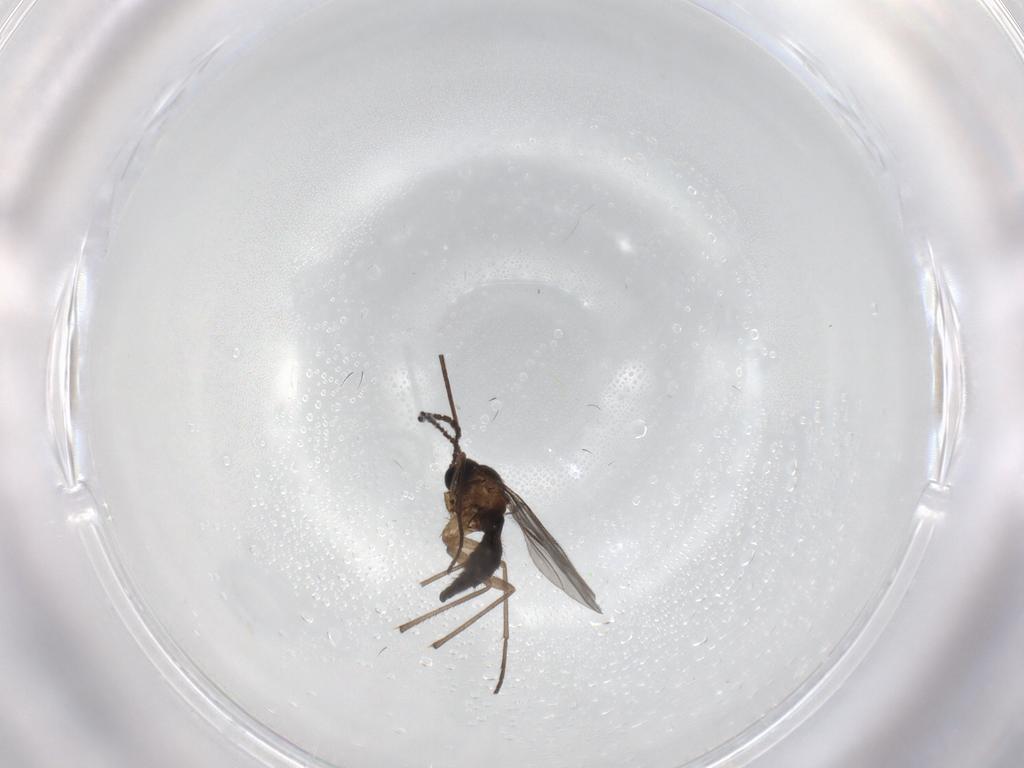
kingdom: Animalia
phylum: Arthropoda
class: Insecta
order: Diptera
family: Sciaridae
